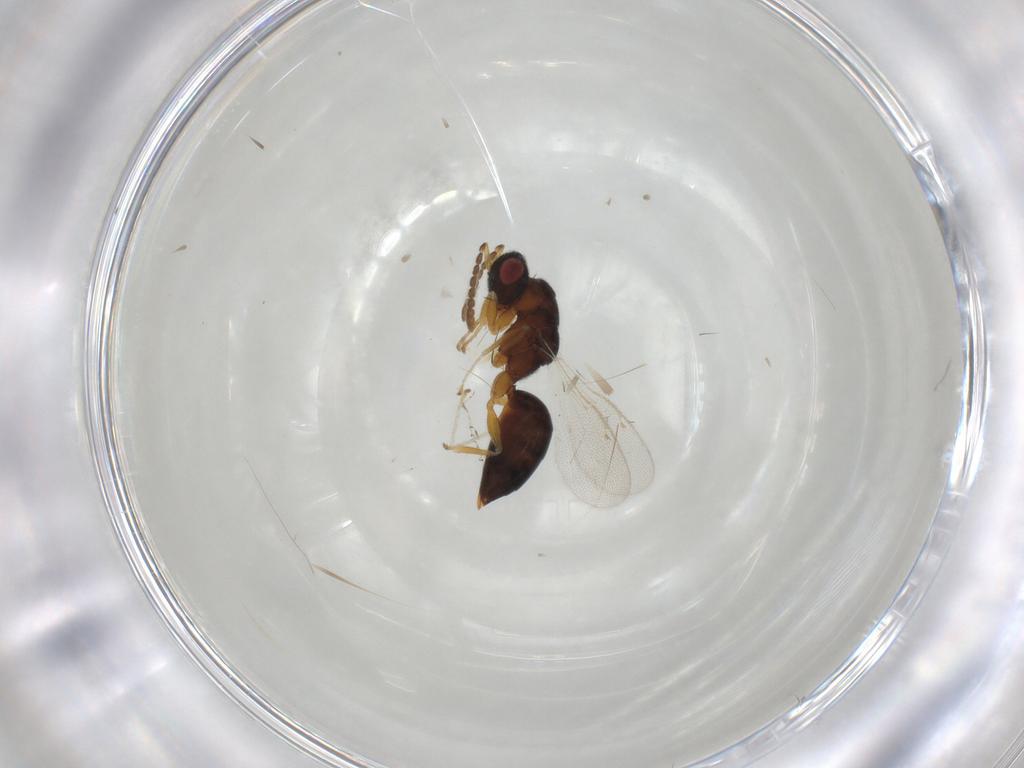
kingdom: Animalia
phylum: Arthropoda
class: Insecta
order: Hymenoptera
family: Eurytomidae
